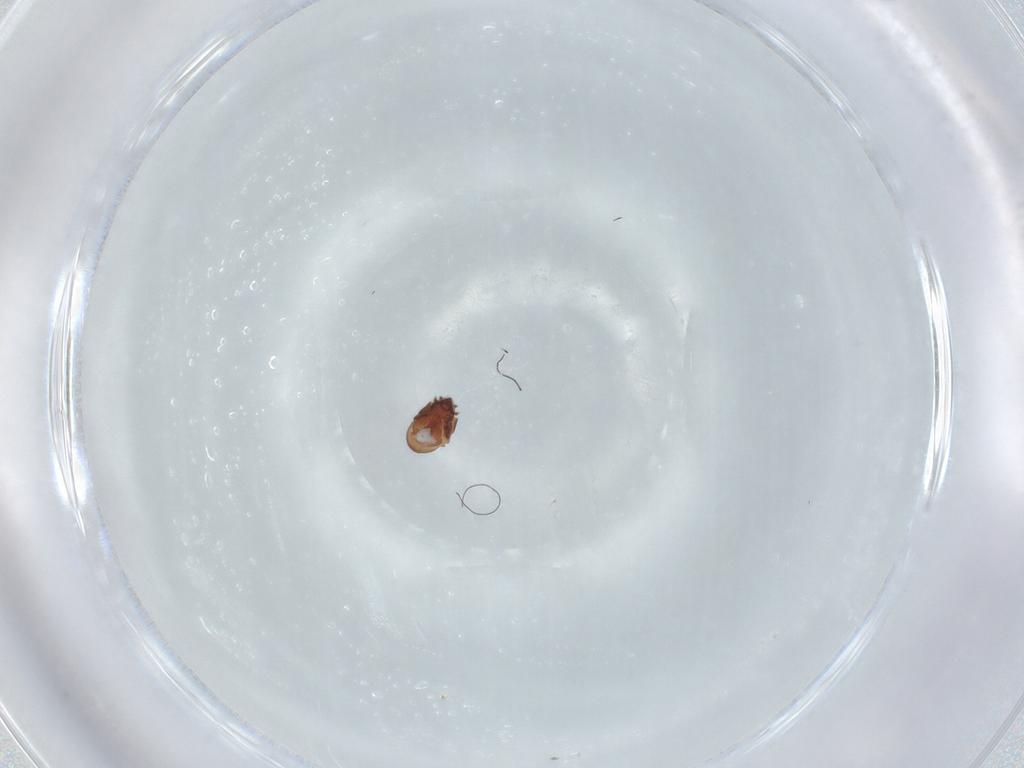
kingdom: Animalia
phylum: Arthropoda
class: Arachnida
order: Sarcoptiformes
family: Phenopelopidae
